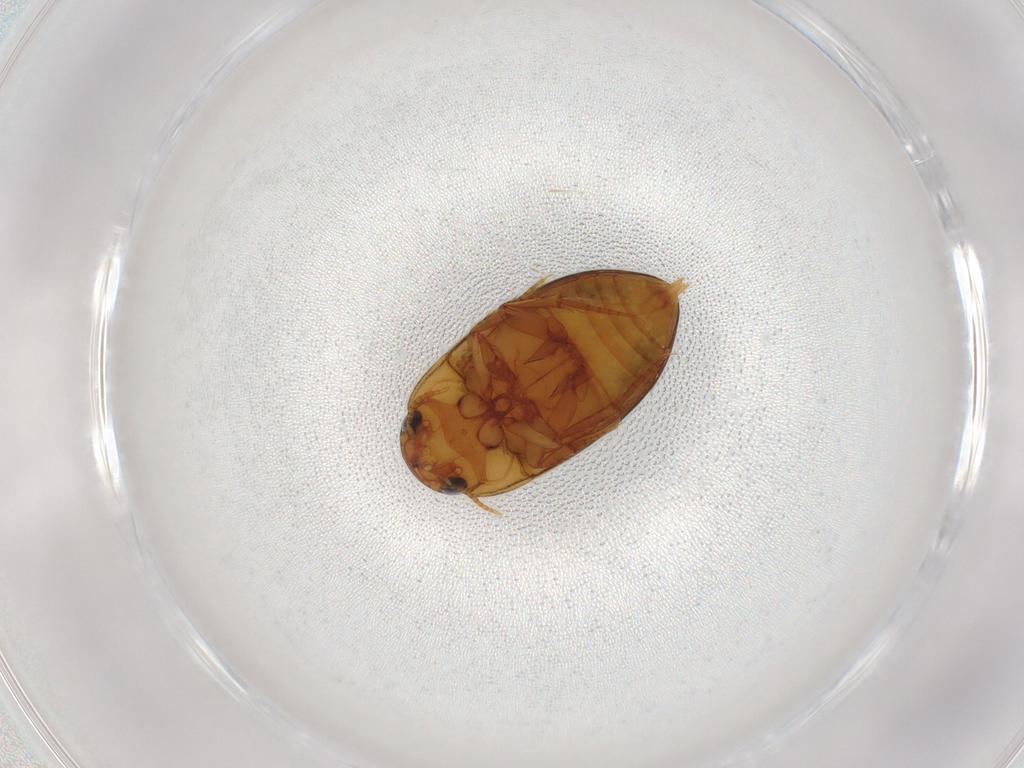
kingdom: Animalia
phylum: Arthropoda
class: Insecta
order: Coleoptera
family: Noteridae
